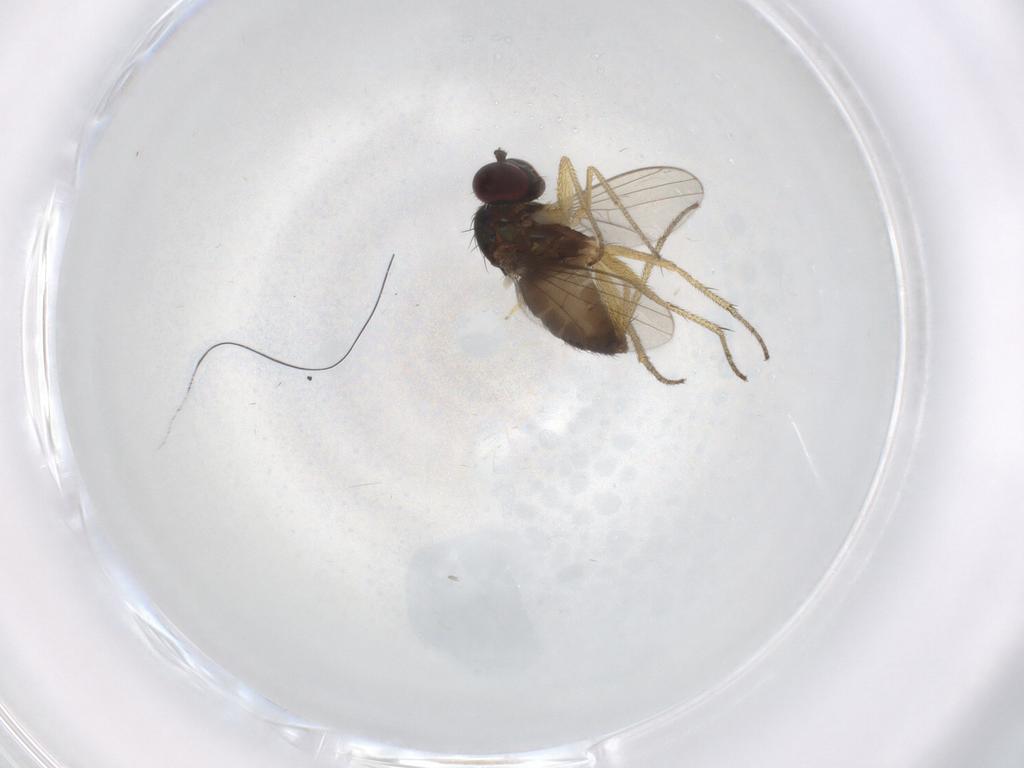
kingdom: Animalia
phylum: Arthropoda
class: Insecta
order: Diptera
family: Dolichopodidae
